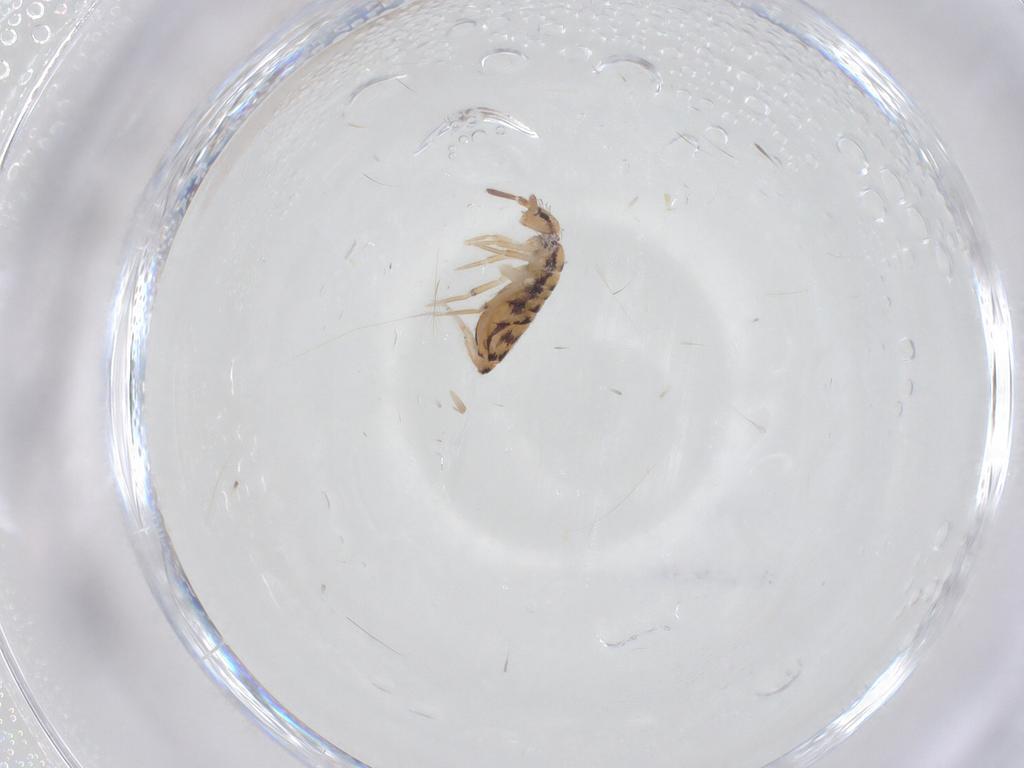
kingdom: Animalia
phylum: Arthropoda
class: Collembola
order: Entomobryomorpha
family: Entomobryidae
